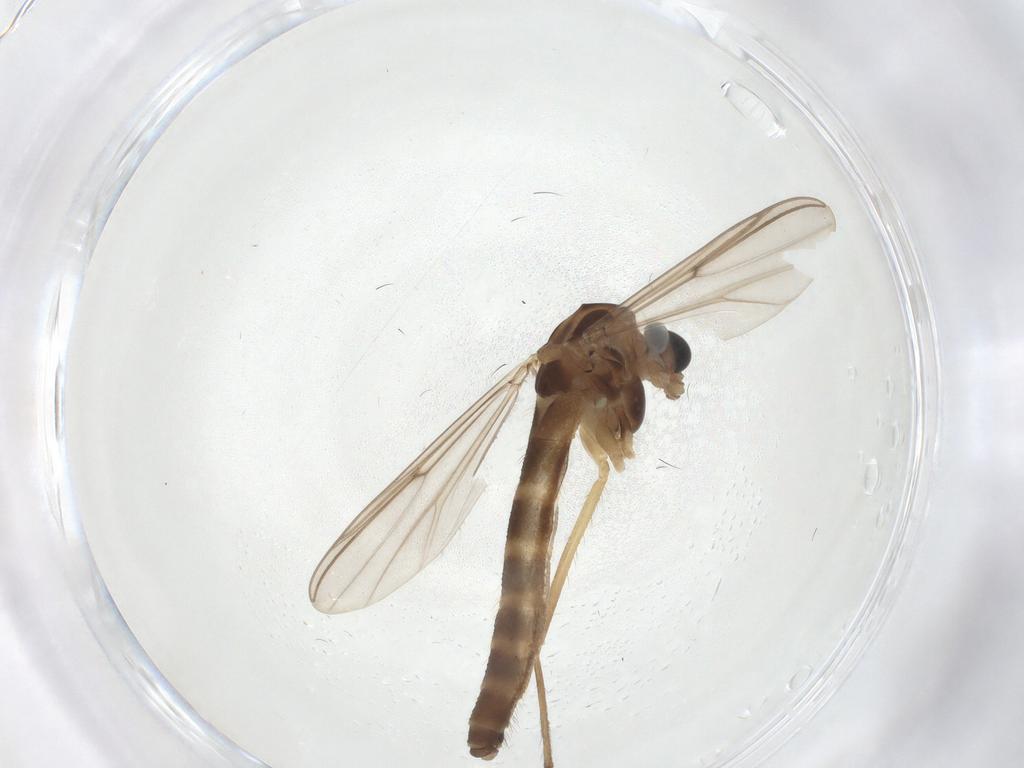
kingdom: Animalia
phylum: Arthropoda
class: Insecta
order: Diptera
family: Cecidomyiidae
